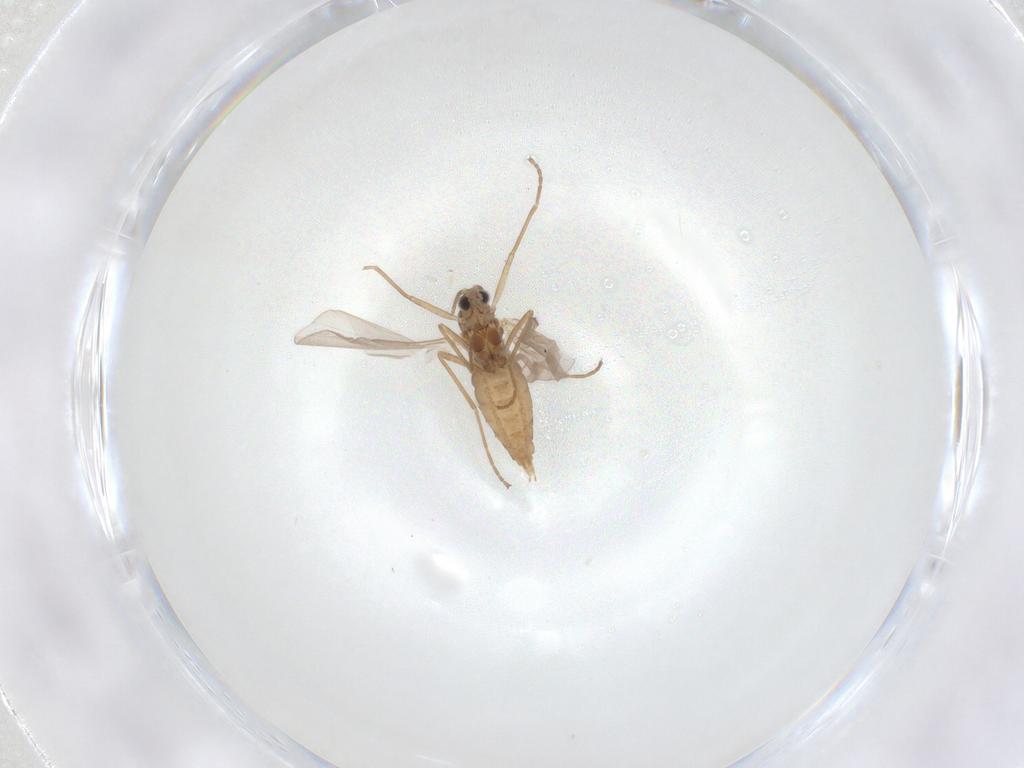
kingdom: Animalia
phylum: Arthropoda
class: Insecta
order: Diptera
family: Cecidomyiidae
